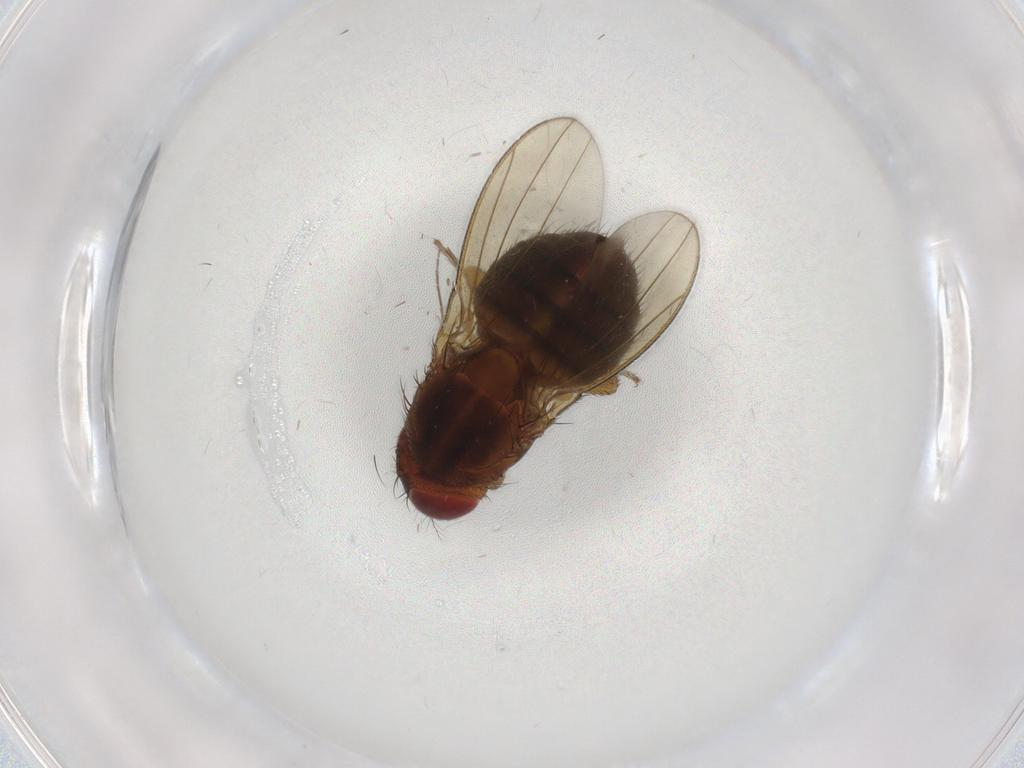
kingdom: Animalia
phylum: Arthropoda
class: Insecta
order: Diptera
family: Drosophilidae
